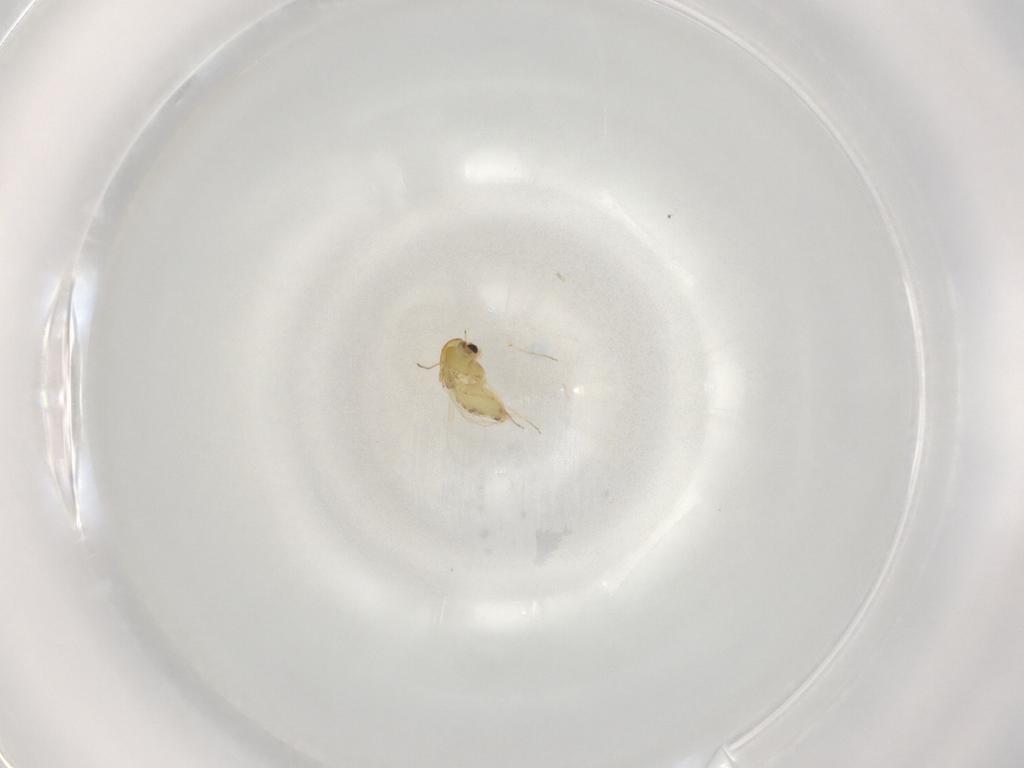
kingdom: Animalia
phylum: Arthropoda
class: Insecta
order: Diptera
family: Chironomidae
